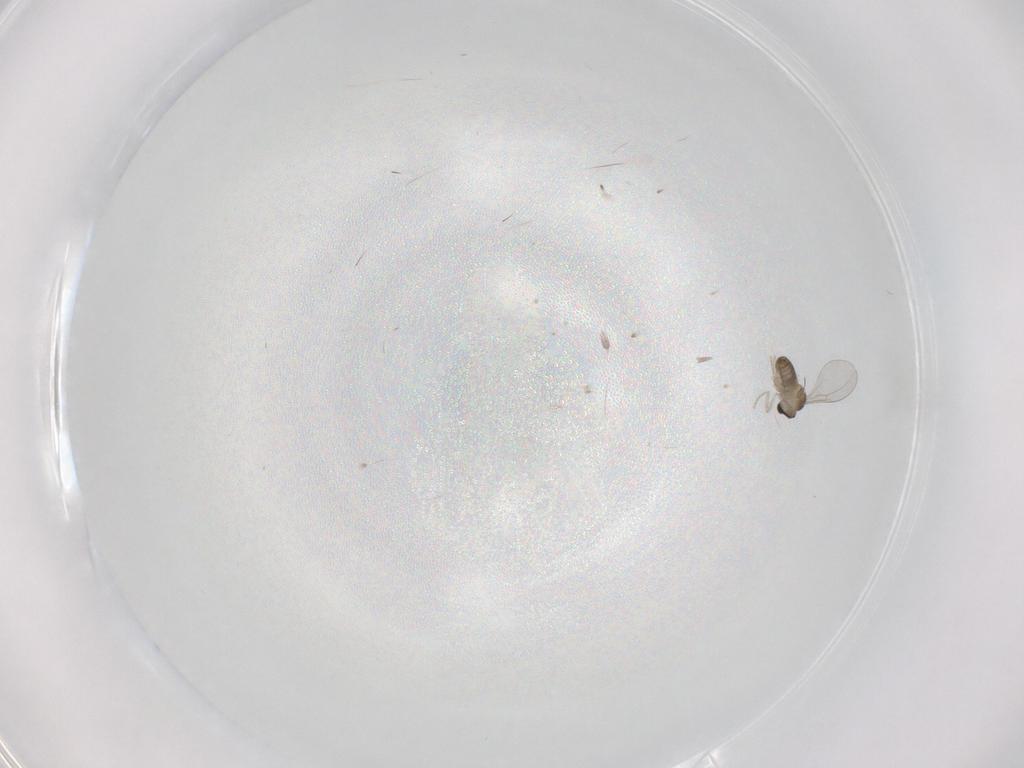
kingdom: Animalia
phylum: Arthropoda
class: Insecta
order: Diptera
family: Cecidomyiidae
